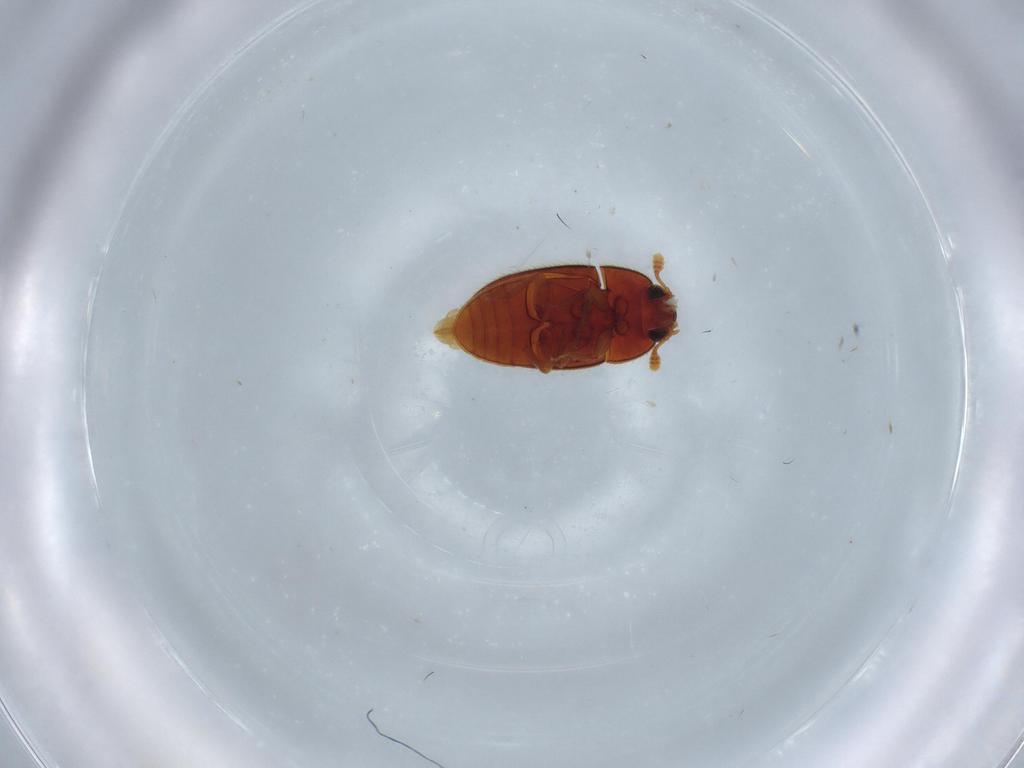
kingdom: Animalia
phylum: Arthropoda
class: Insecta
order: Coleoptera
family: Biphyllidae
